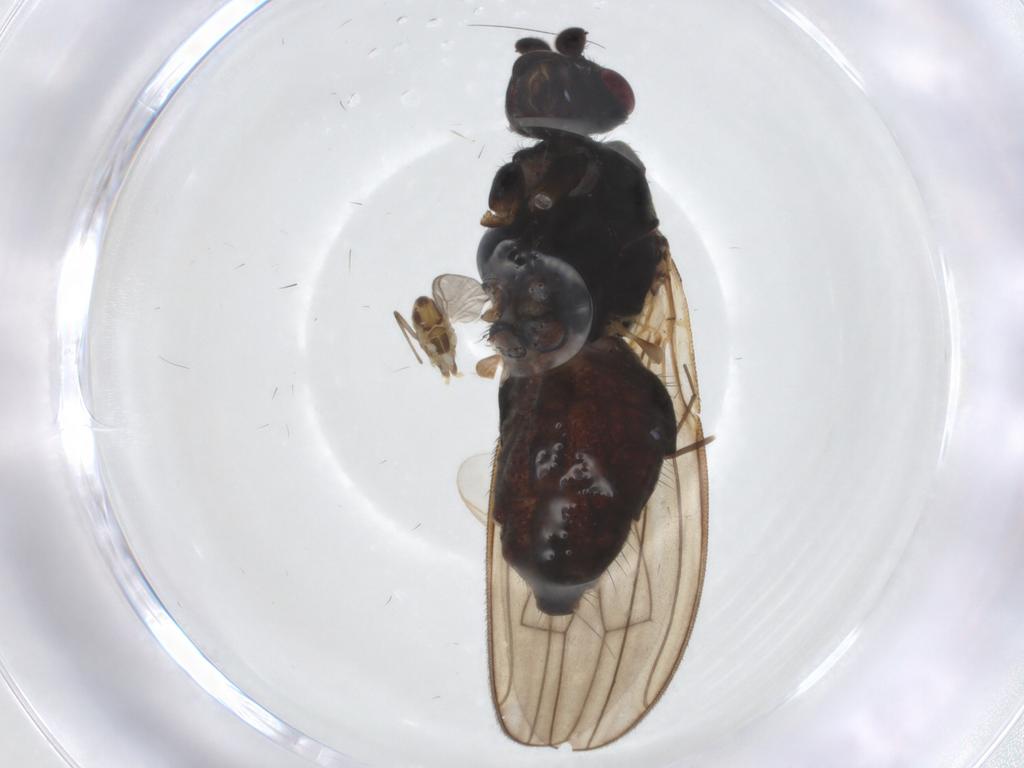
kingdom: Animalia
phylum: Arthropoda
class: Insecta
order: Diptera
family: Sphaeroceridae
